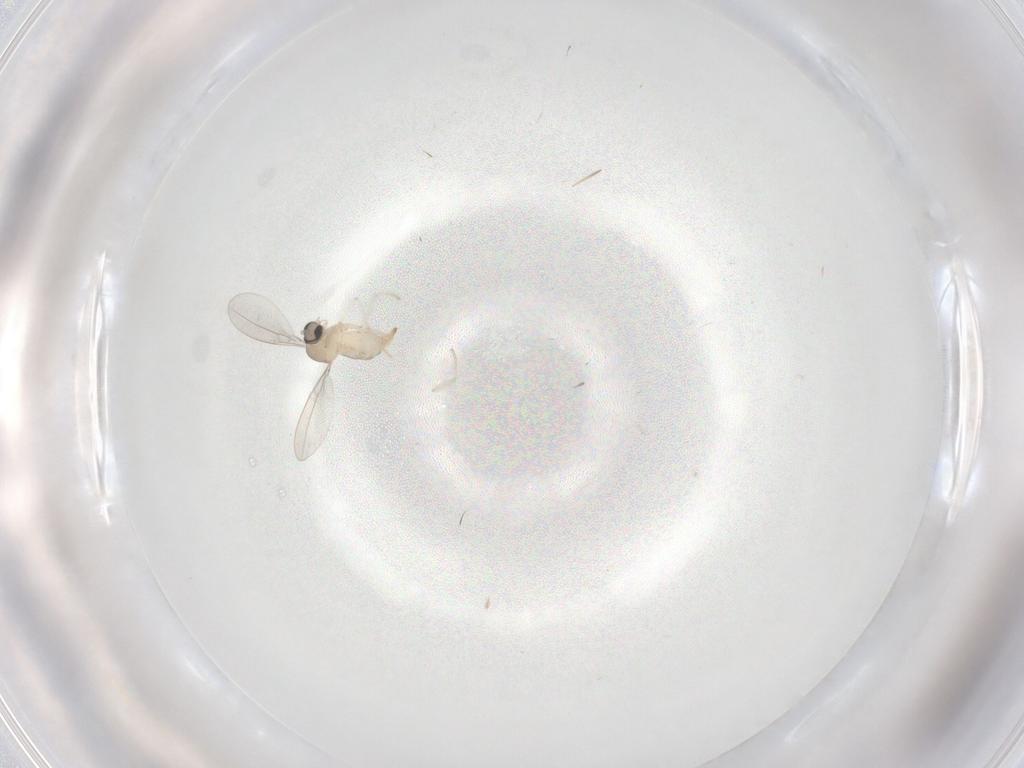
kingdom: Animalia
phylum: Arthropoda
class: Insecta
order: Diptera
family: Cecidomyiidae
